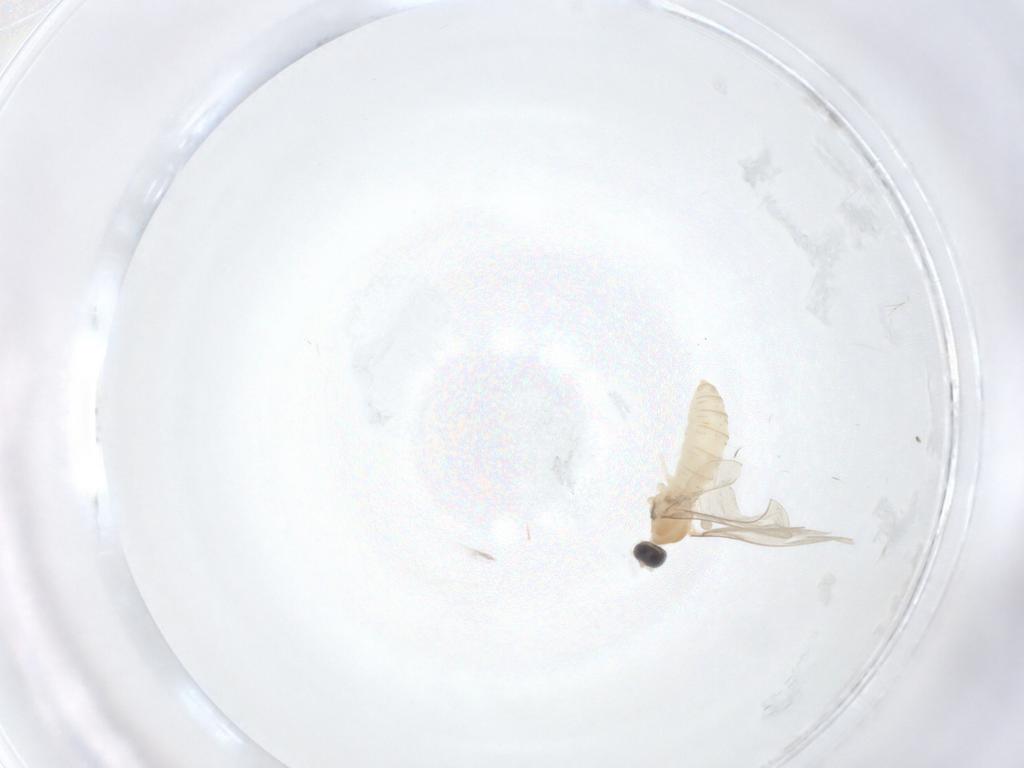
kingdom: Animalia
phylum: Arthropoda
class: Insecta
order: Diptera
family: Cecidomyiidae
